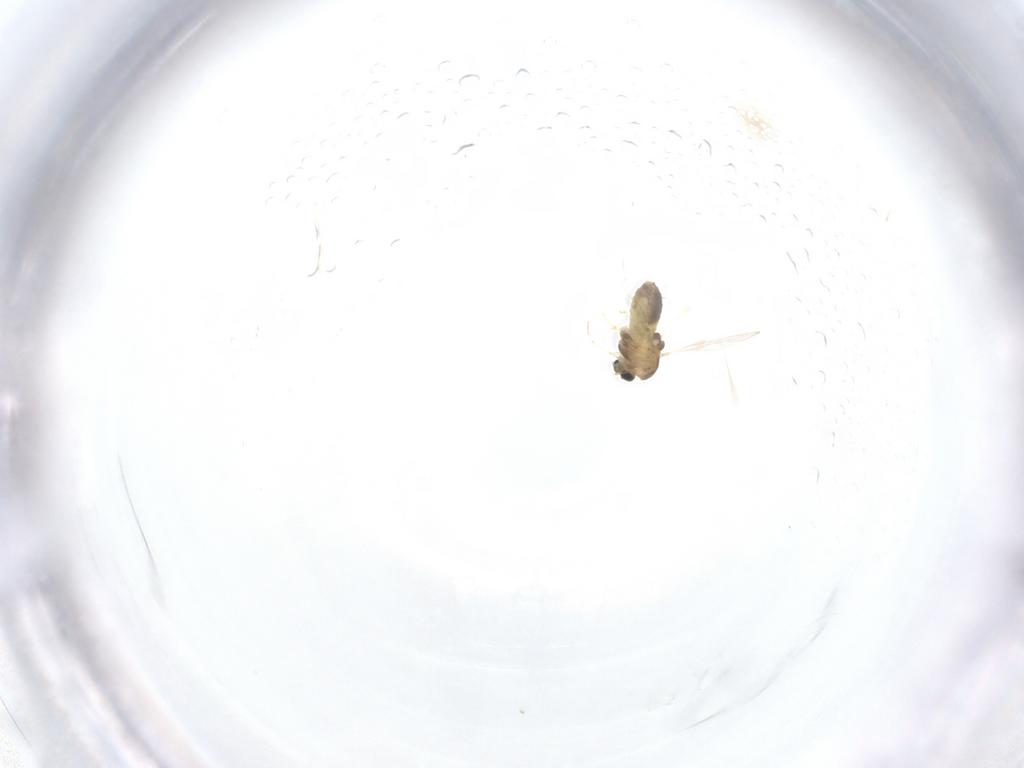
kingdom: Animalia
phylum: Arthropoda
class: Insecta
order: Diptera
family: Chironomidae
